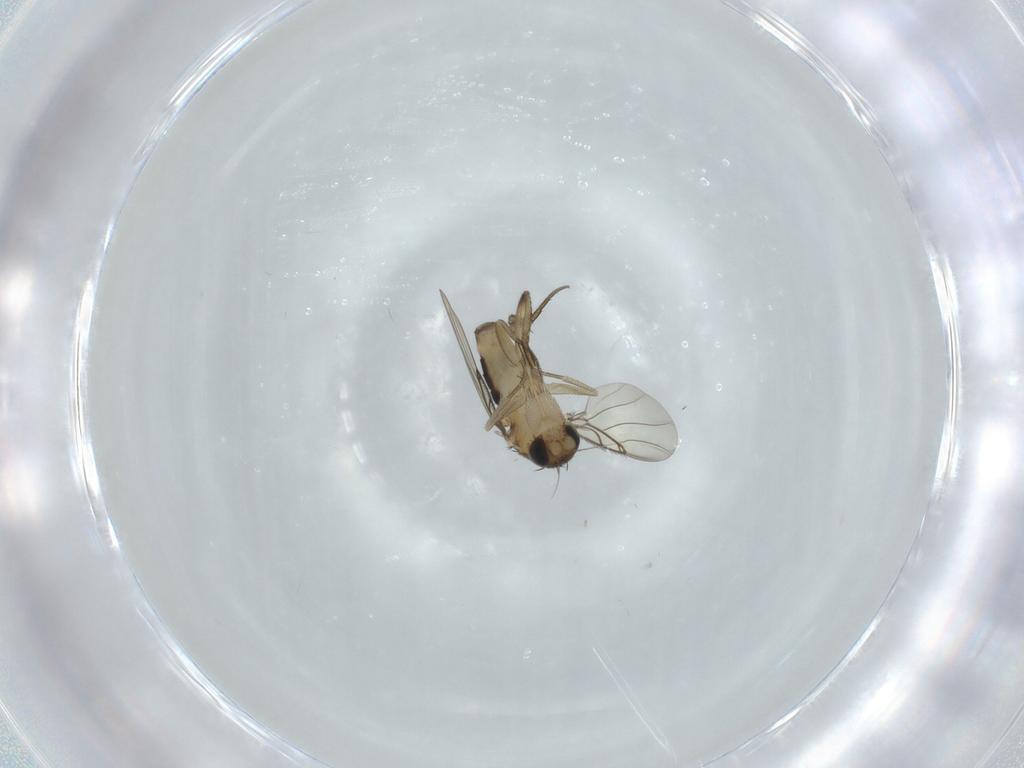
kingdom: Animalia
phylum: Arthropoda
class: Insecta
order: Diptera
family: Phoridae
